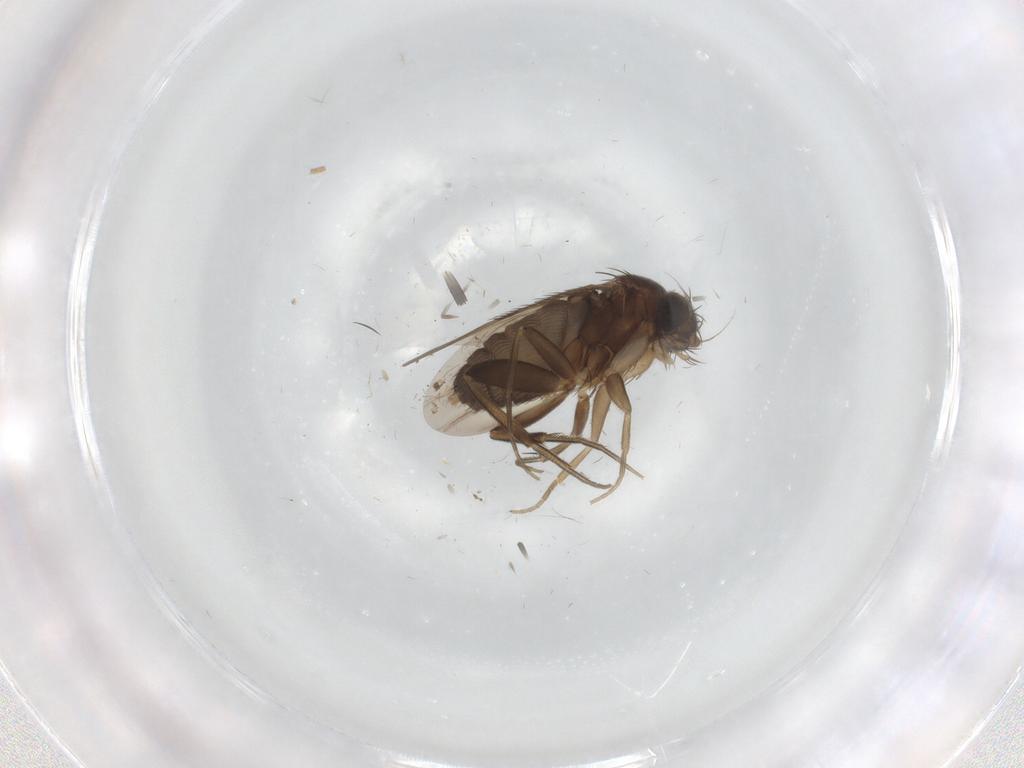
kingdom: Animalia
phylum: Arthropoda
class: Insecta
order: Diptera
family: Phoridae
